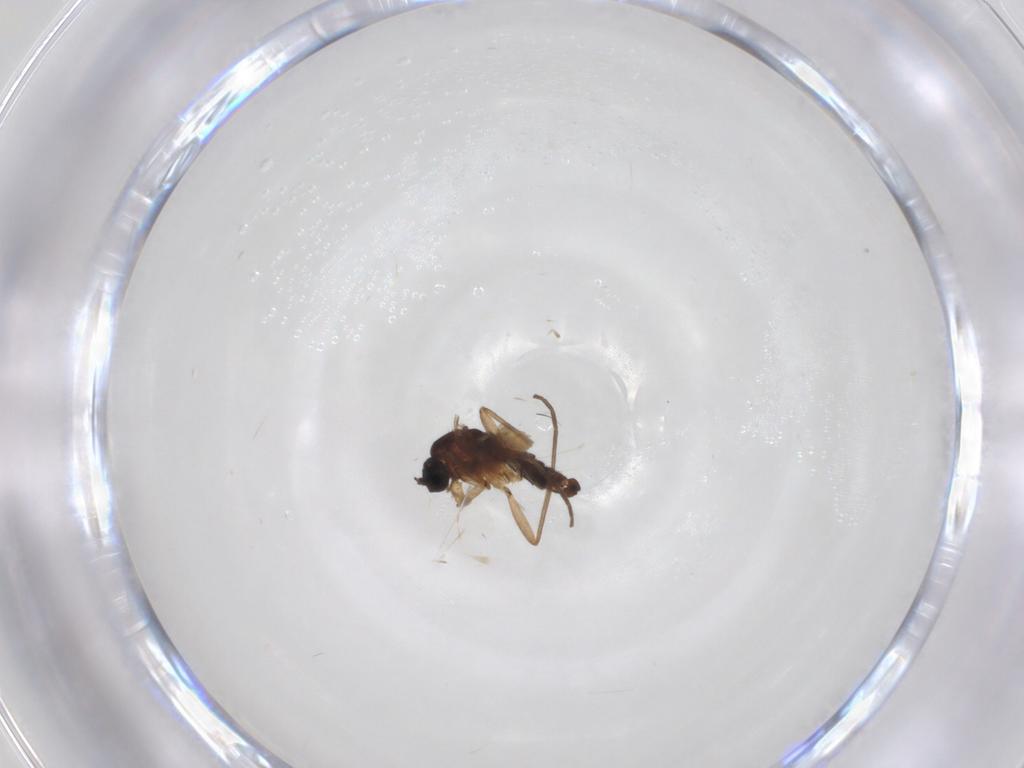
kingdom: Animalia
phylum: Arthropoda
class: Insecta
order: Diptera
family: Sciaridae
